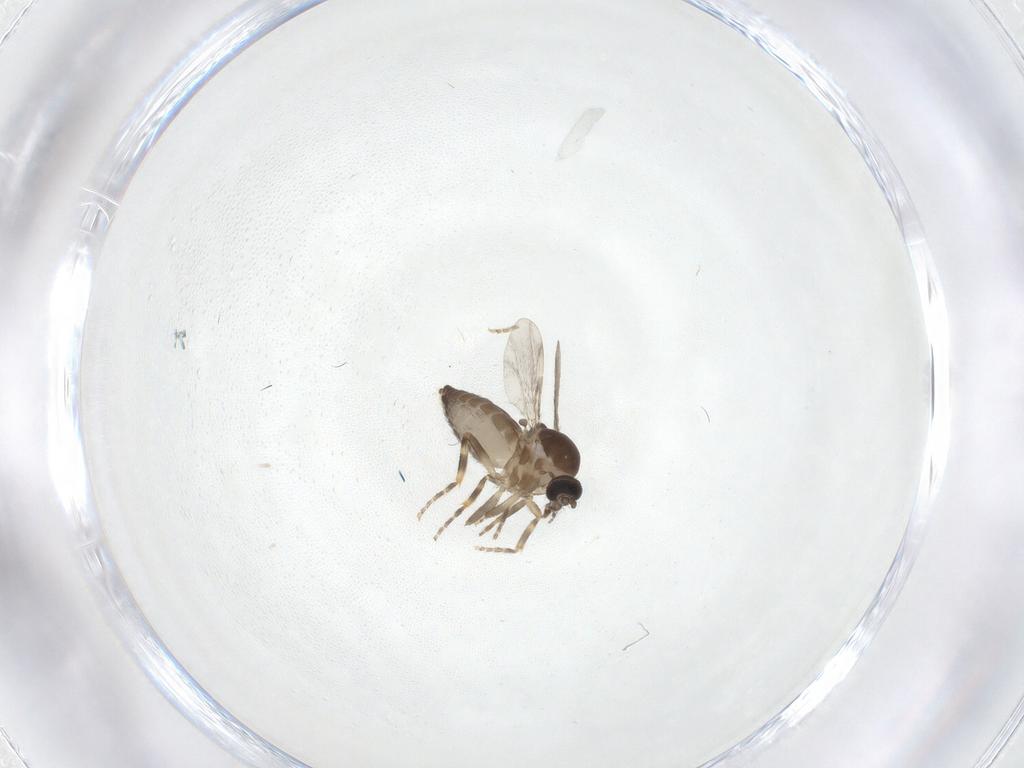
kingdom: Animalia
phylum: Arthropoda
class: Insecta
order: Diptera
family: Ceratopogonidae
